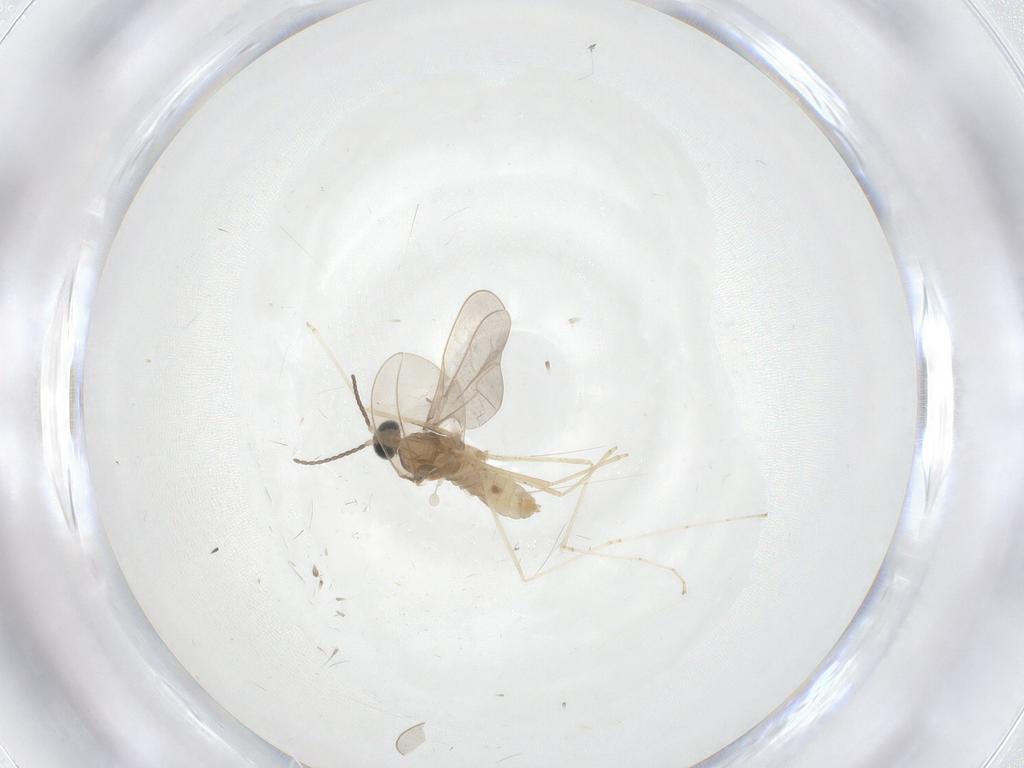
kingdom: Animalia
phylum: Arthropoda
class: Insecta
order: Diptera
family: Cecidomyiidae
